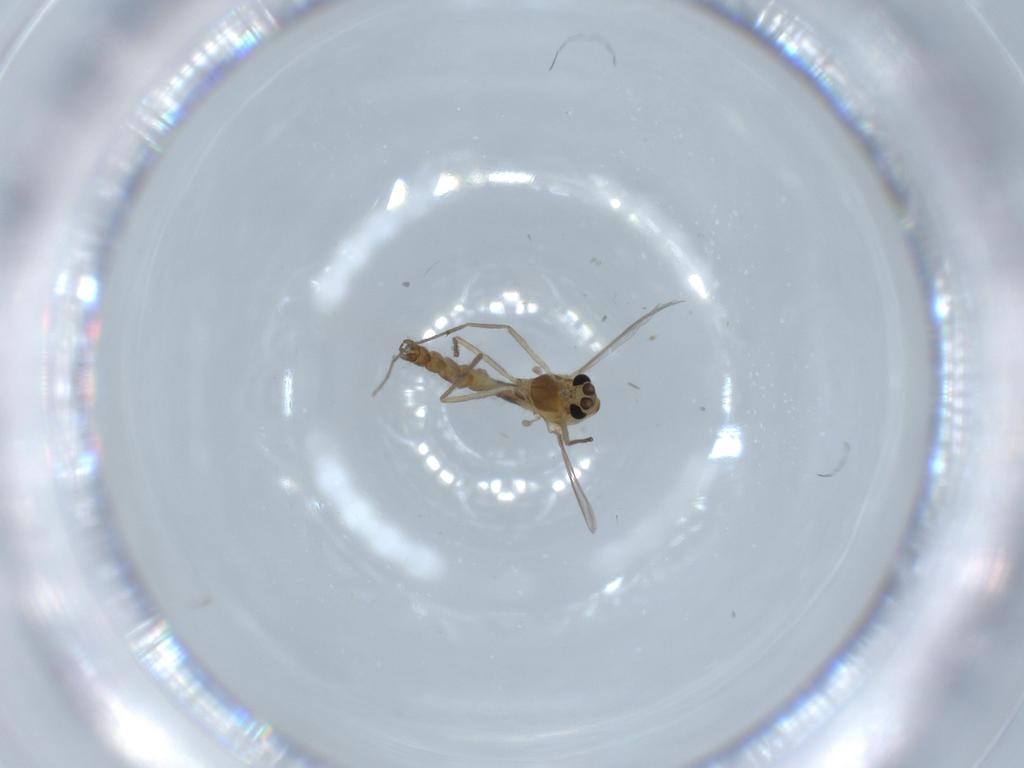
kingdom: Animalia
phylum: Arthropoda
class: Insecta
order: Diptera
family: Chironomidae
